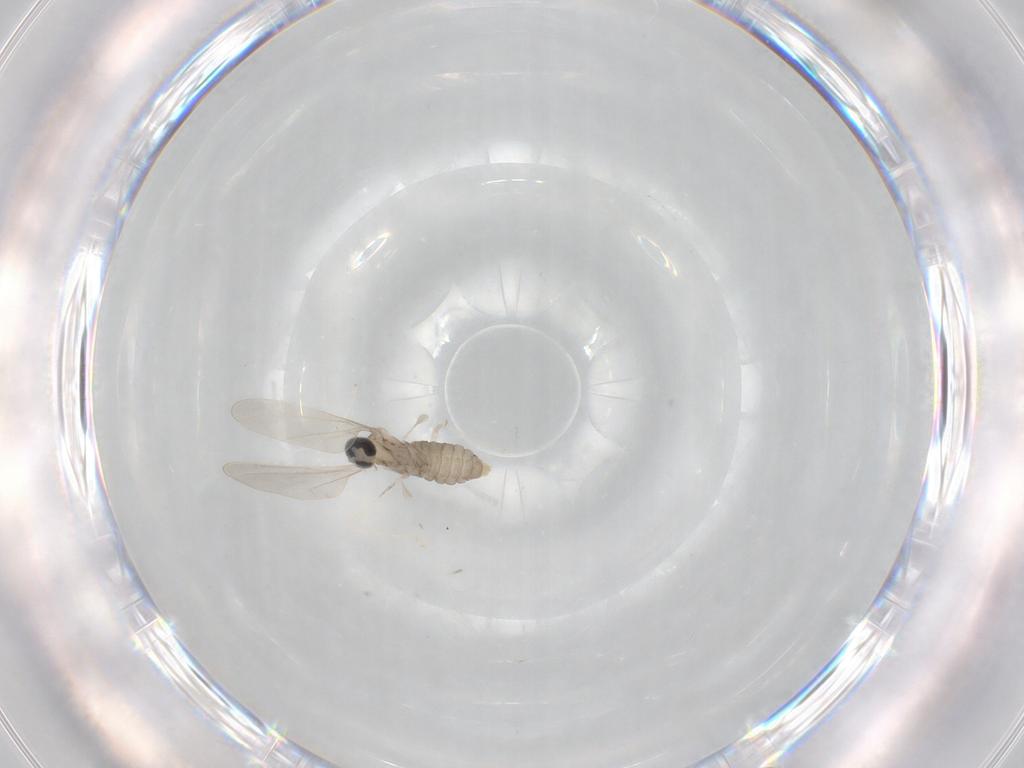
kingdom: Animalia
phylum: Arthropoda
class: Insecta
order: Diptera
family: Cecidomyiidae
